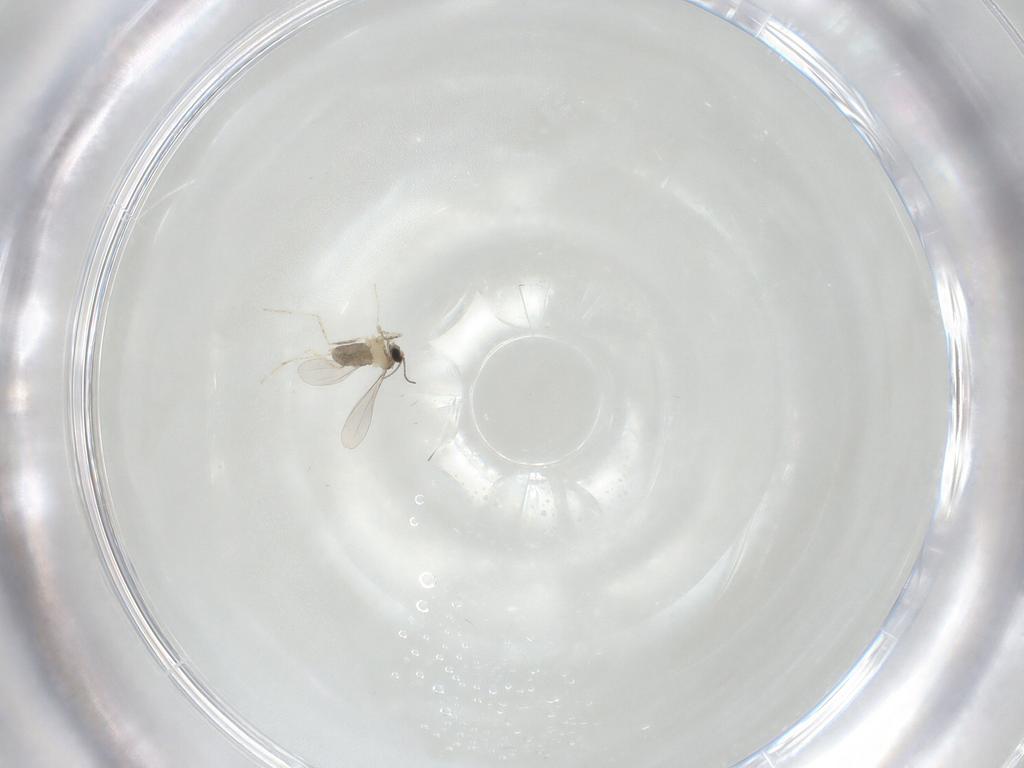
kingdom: Animalia
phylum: Arthropoda
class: Insecta
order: Diptera
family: Cecidomyiidae
